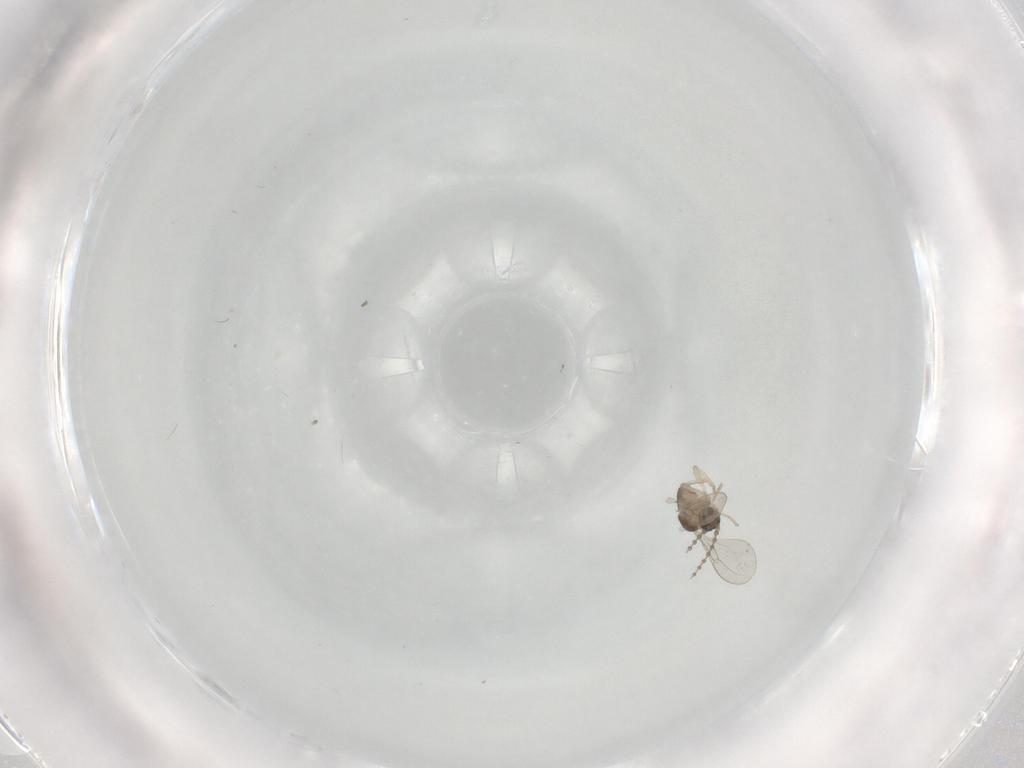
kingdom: Animalia
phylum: Arthropoda
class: Insecta
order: Diptera
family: Cecidomyiidae
